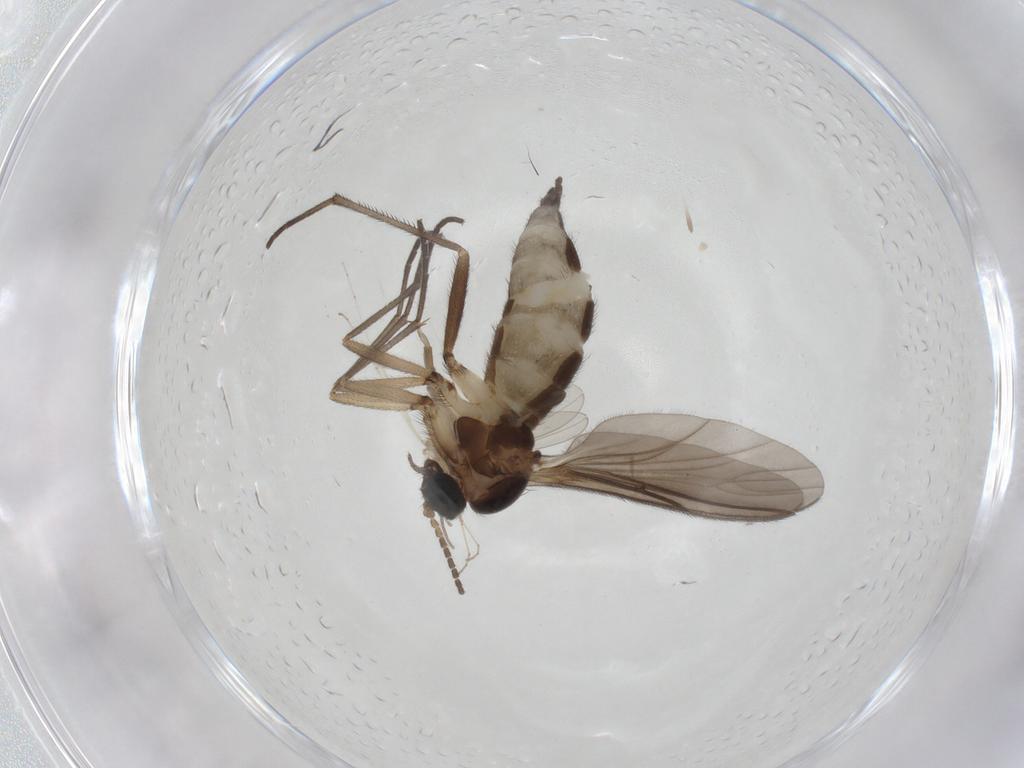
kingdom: Animalia
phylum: Arthropoda
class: Insecta
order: Diptera
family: Sciaridae
